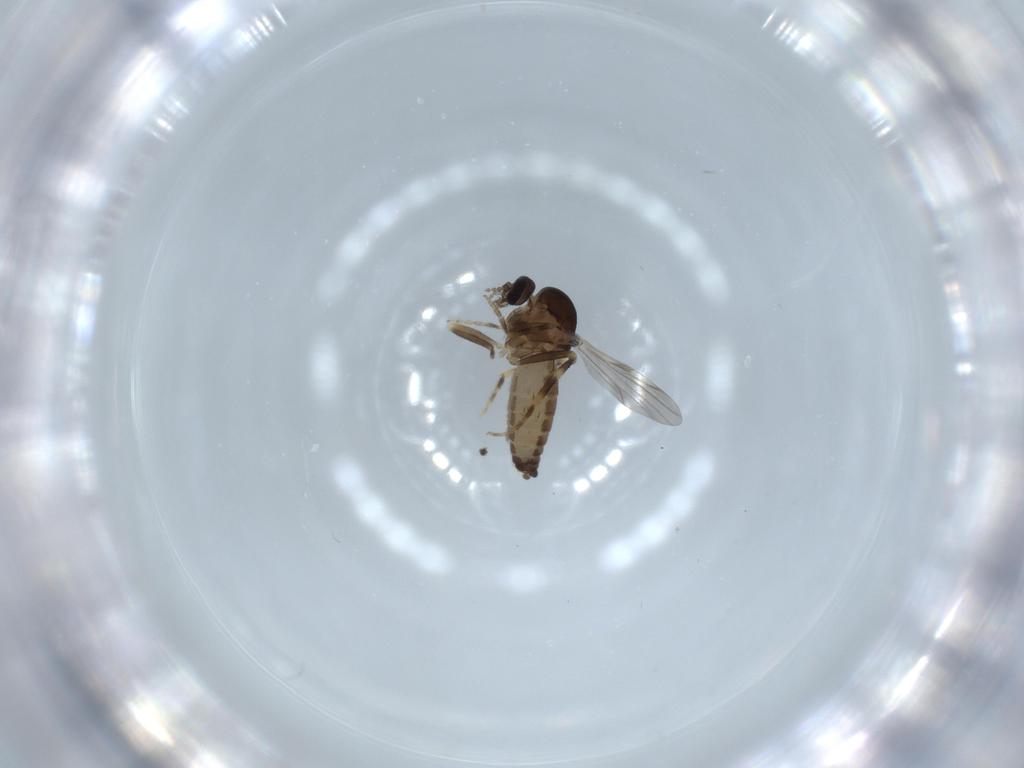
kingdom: Animalia
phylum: Arthropoda
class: Insecta
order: Diptera
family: Ceratopogonidae
